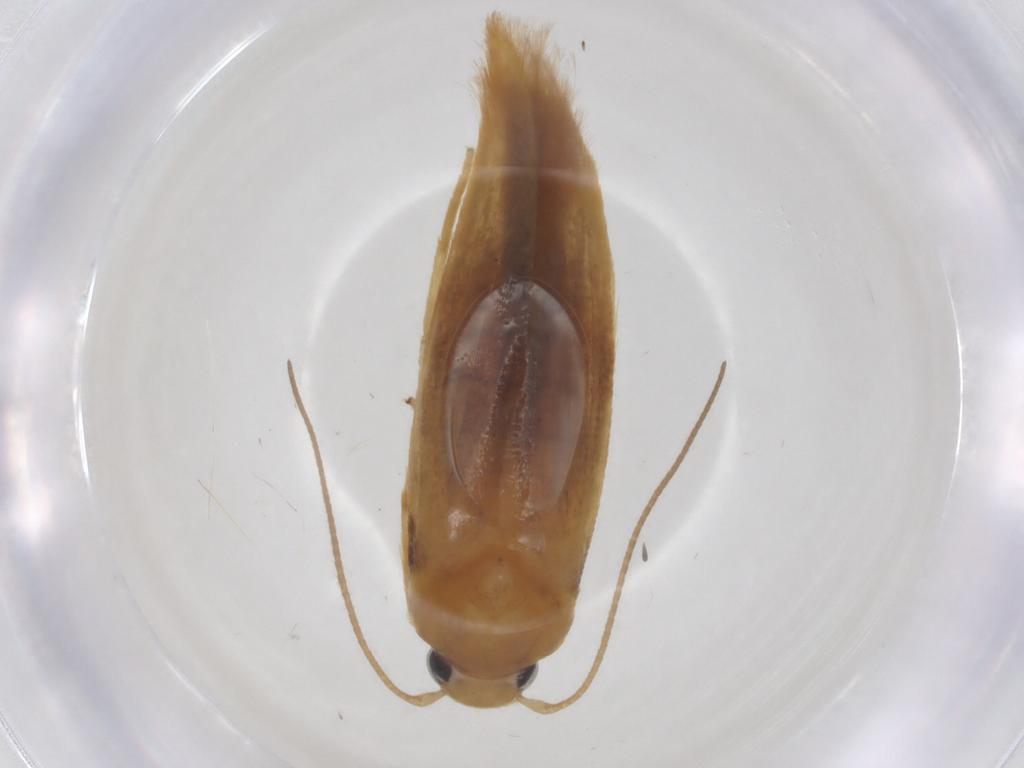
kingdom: Animalia
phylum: Arthropoda
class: Insecta
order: Lepidoptera
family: Stathmopodidae
